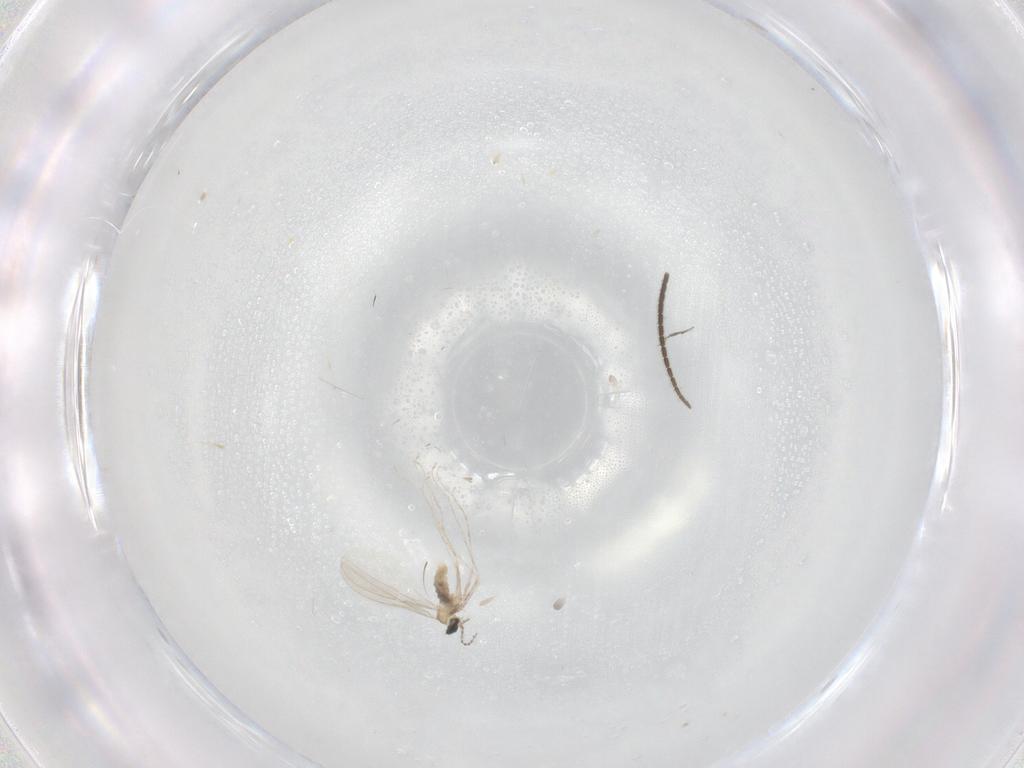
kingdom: Animalia
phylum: Arthropoda
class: Insecta
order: Diptera
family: Cecidomyiidae
